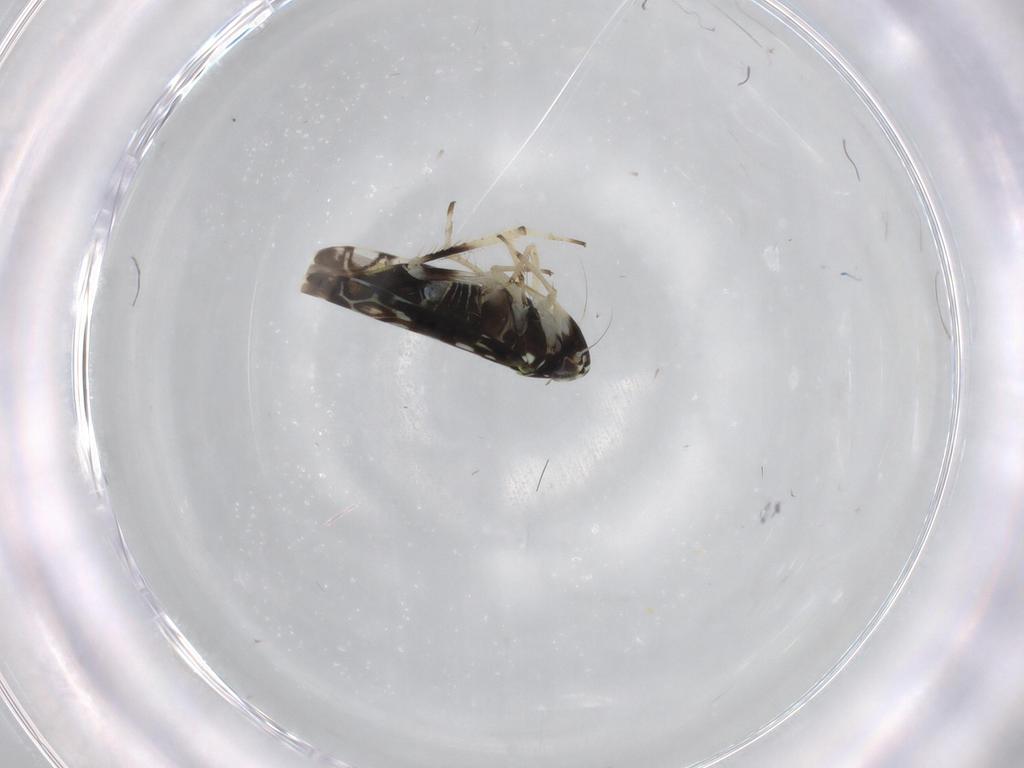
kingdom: Animalia
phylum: Arthropoda
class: Insecta
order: Hemiptera
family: Cicadellidae
